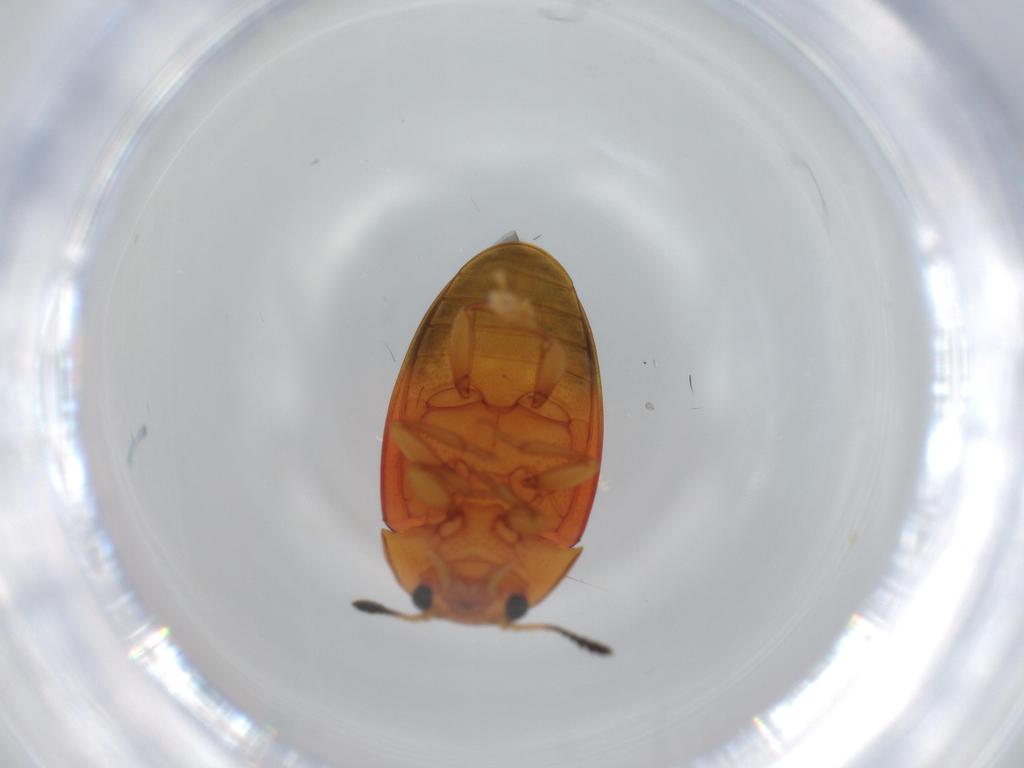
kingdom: Animalia
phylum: Arthropoda
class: Insecta
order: Coleoptera
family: Erotylidae
